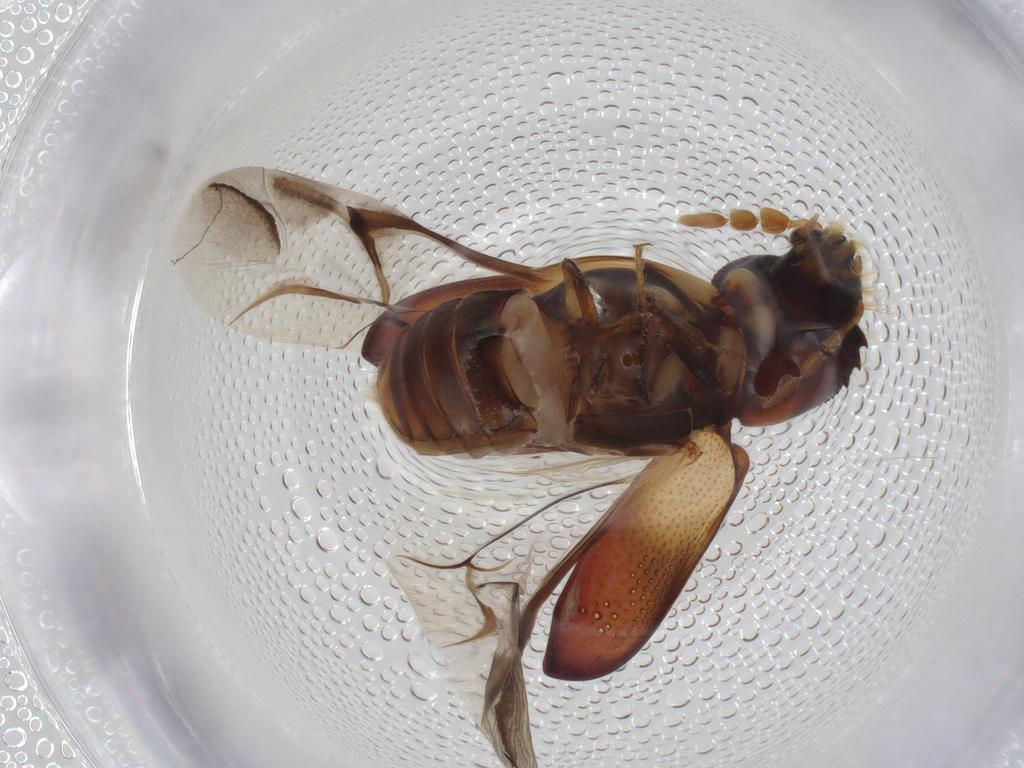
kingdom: Animalia
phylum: Arthropoda
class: Insecta
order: Coleoptera
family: Bostrichidae
